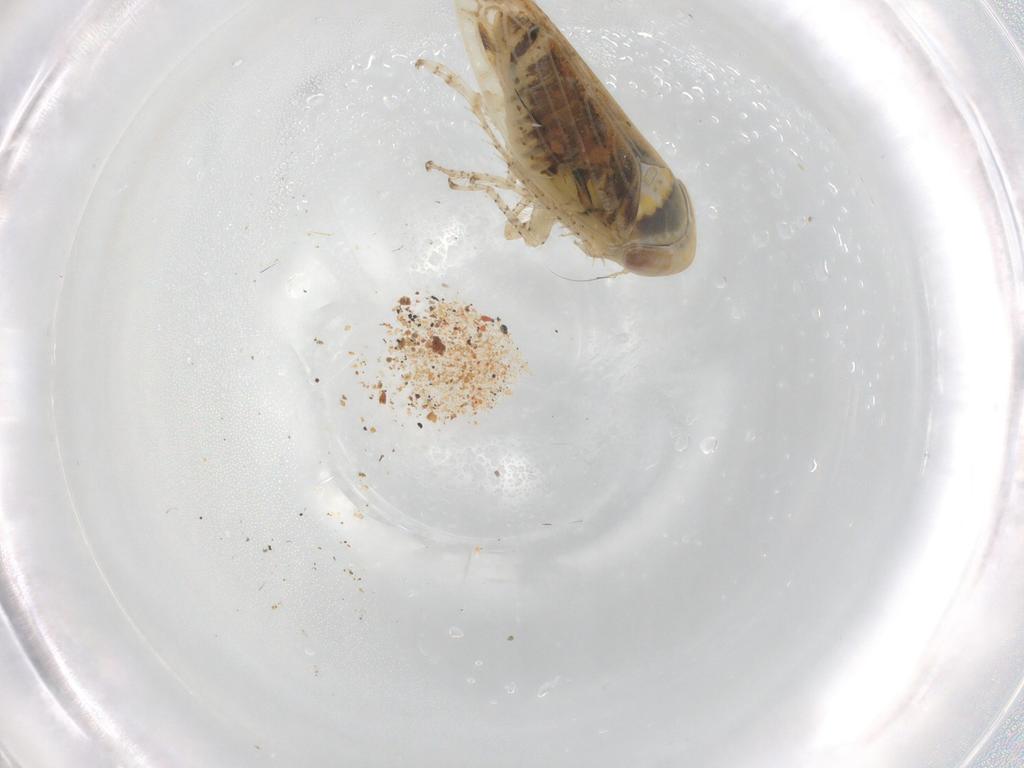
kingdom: Animalia
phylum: Arthropoda
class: Insecta
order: Hemiptera
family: Cicadellidae
